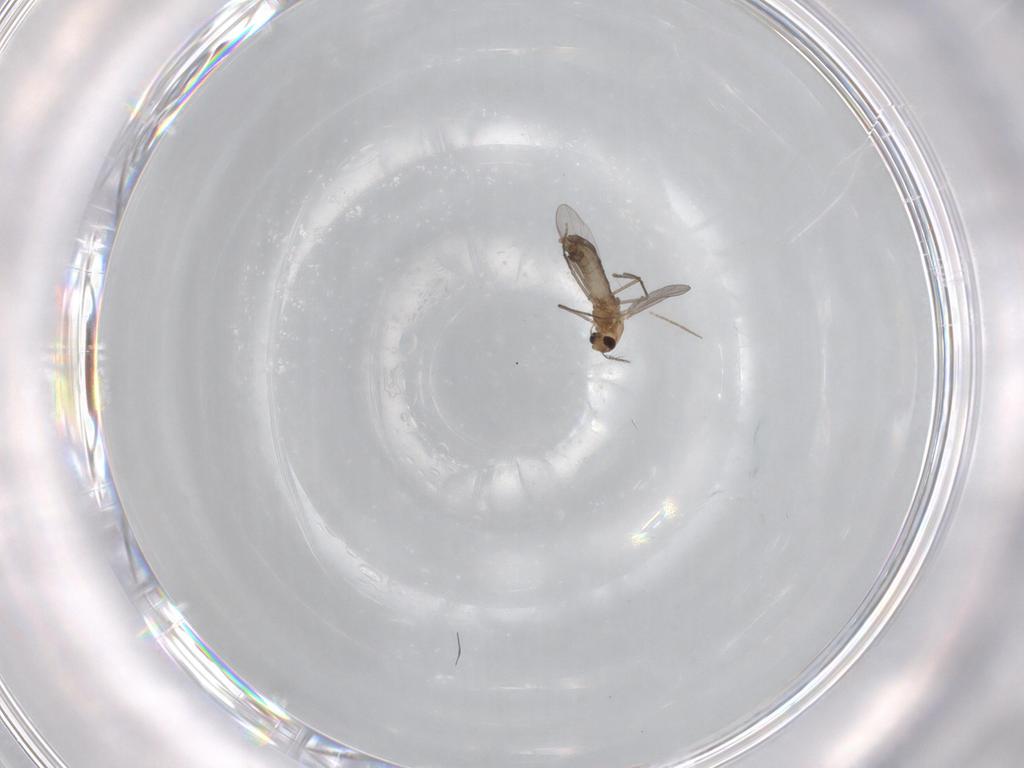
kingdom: Animalia
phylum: Arthropoda
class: Insecta
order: Diptera
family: Chironomidae
